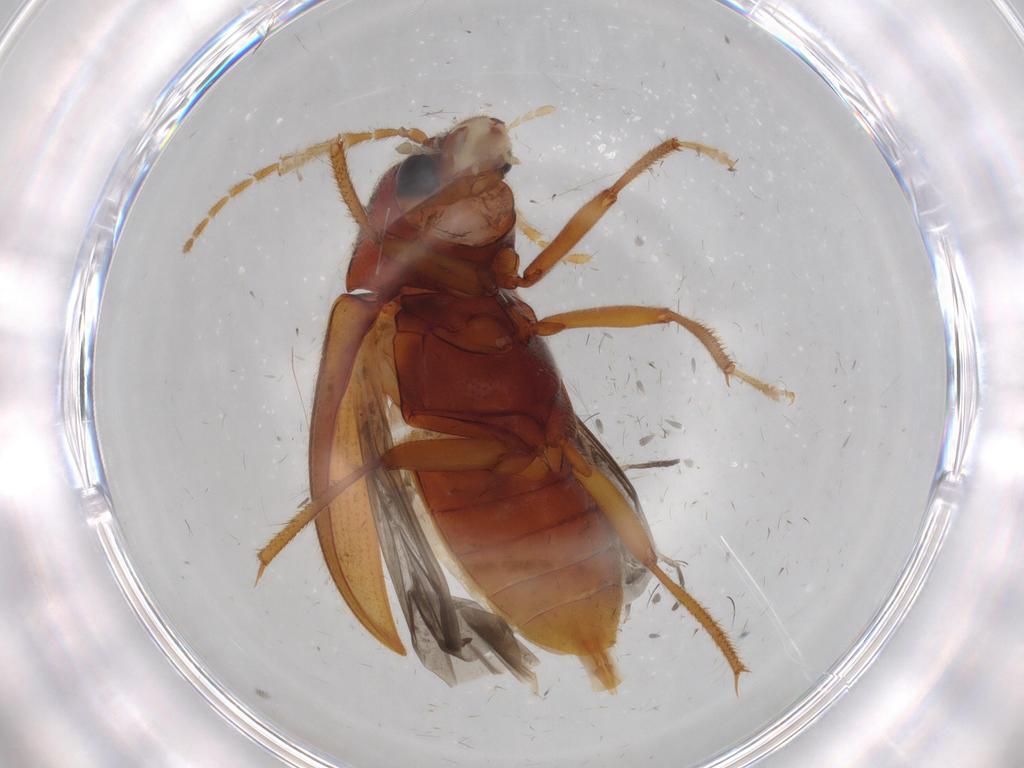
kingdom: Animalia
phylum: Arthropoda
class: Insecta
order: Coleoptera
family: Ptilodactylidae
